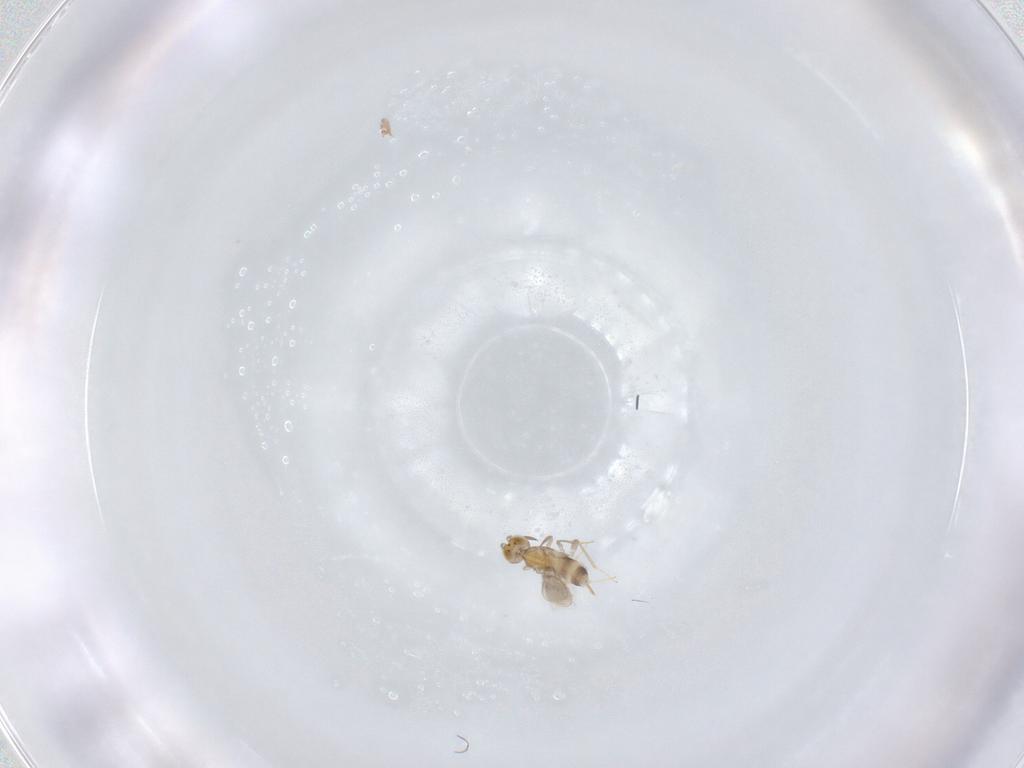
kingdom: Animalia
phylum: Arthropoda
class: Insecta
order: Hymenoptera
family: Aphelinidae
